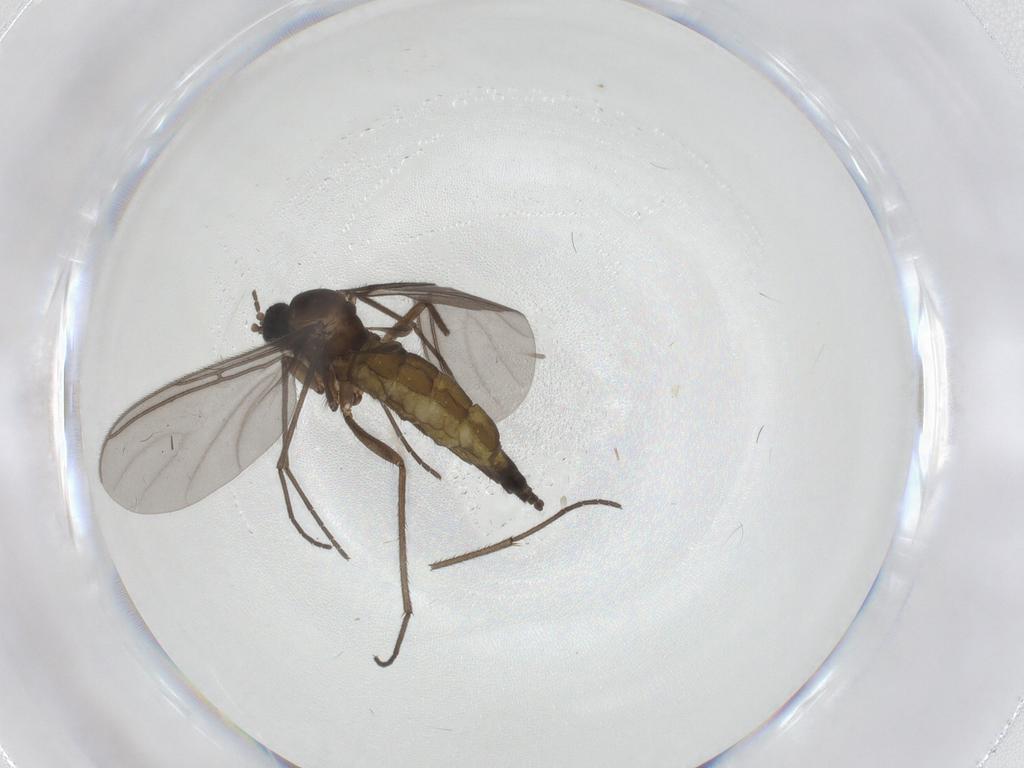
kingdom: Animalia
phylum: Arthropoda
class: Insecta
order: Diptera
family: Sciaridae
